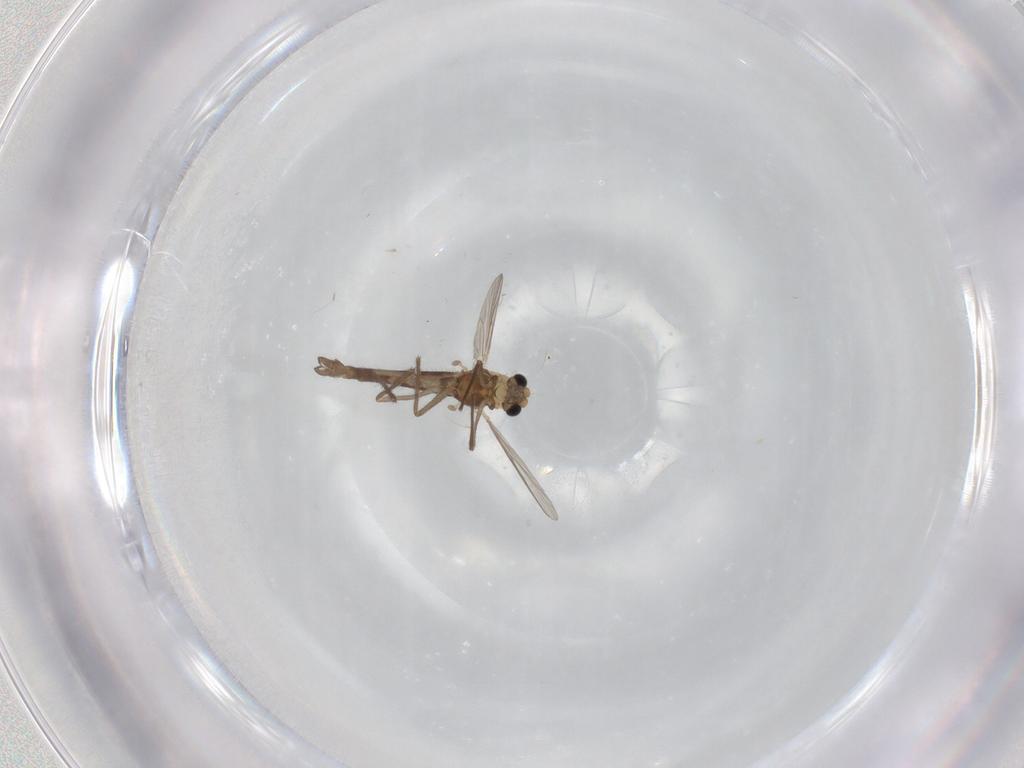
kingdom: Animalia
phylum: Arthropoda
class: Insecta
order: Diptera
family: Chironomidae
